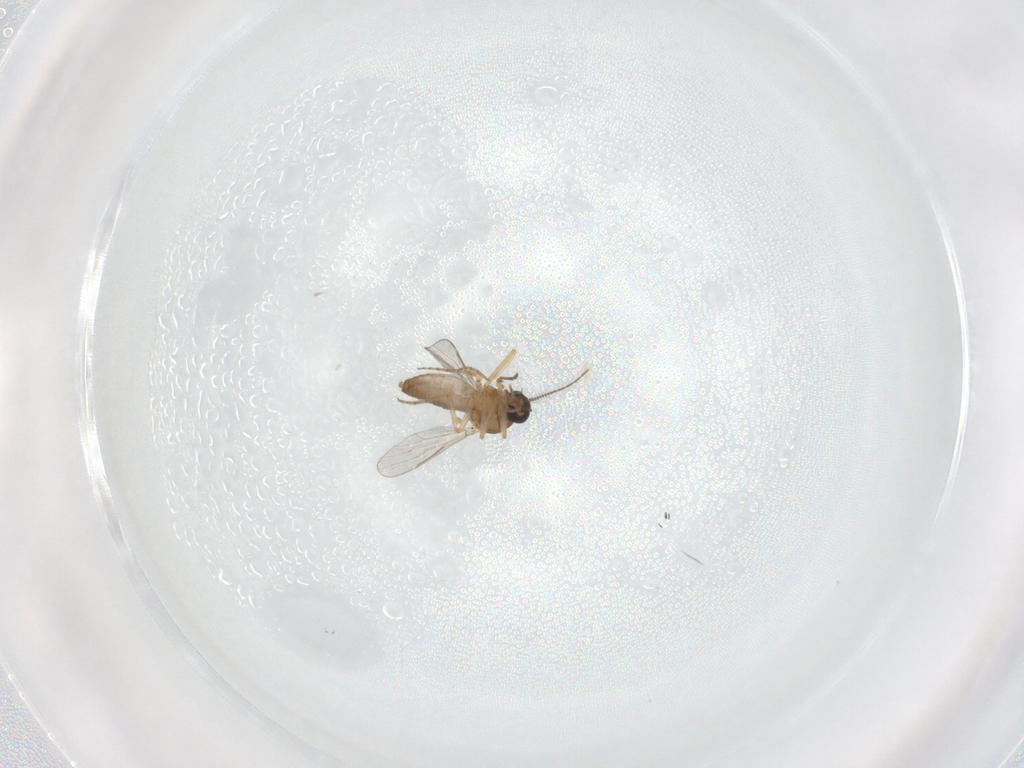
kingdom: Animalia
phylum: Arthropoda
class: Insecta
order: Diptera
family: Ceratopogonidae
